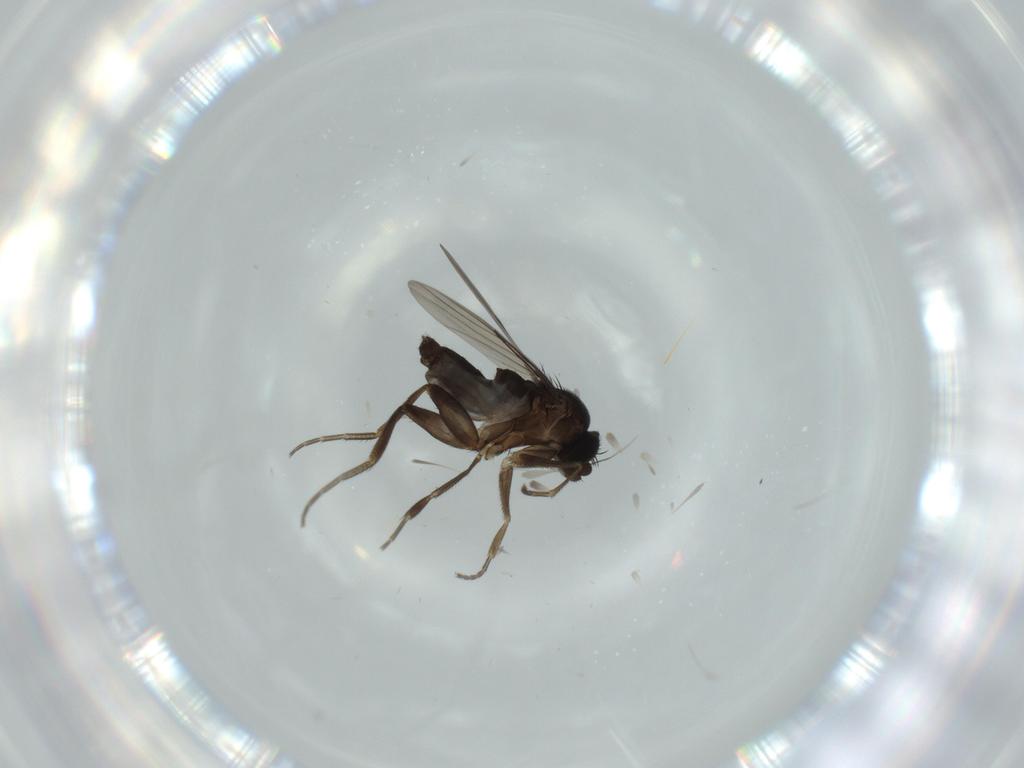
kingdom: Animalia
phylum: Arthropoda
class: Insecta
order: Diptera
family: Phoridae
